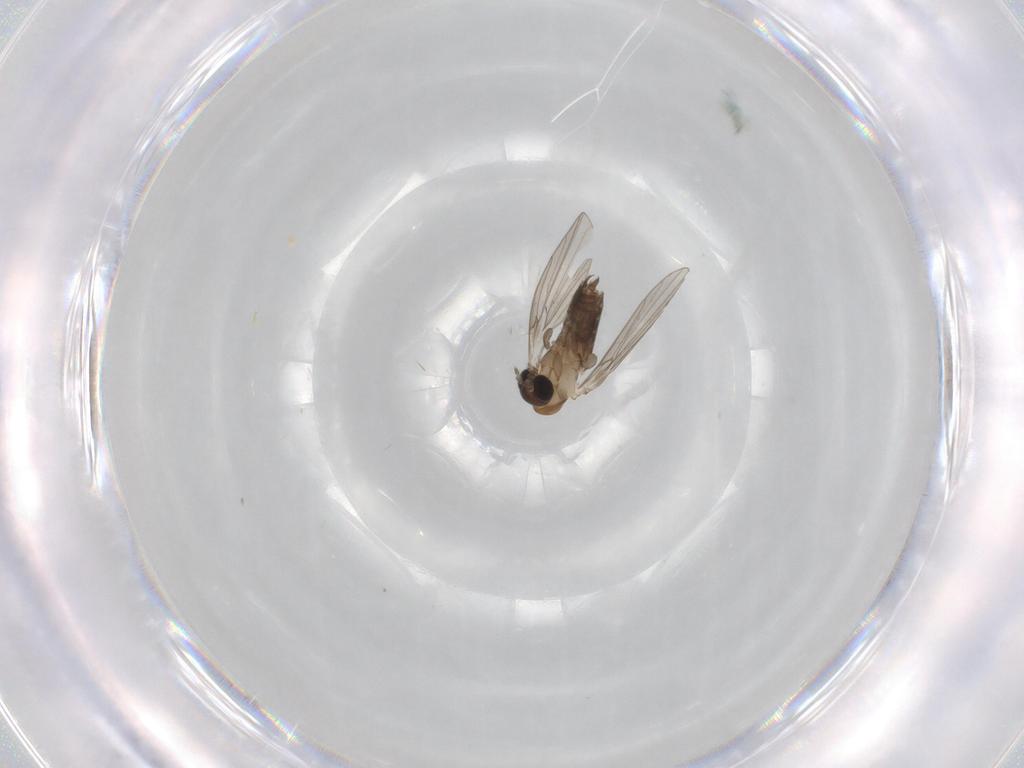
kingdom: Animalia
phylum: Arthropoda
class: Insecta
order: Diptera
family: Psychodidae
